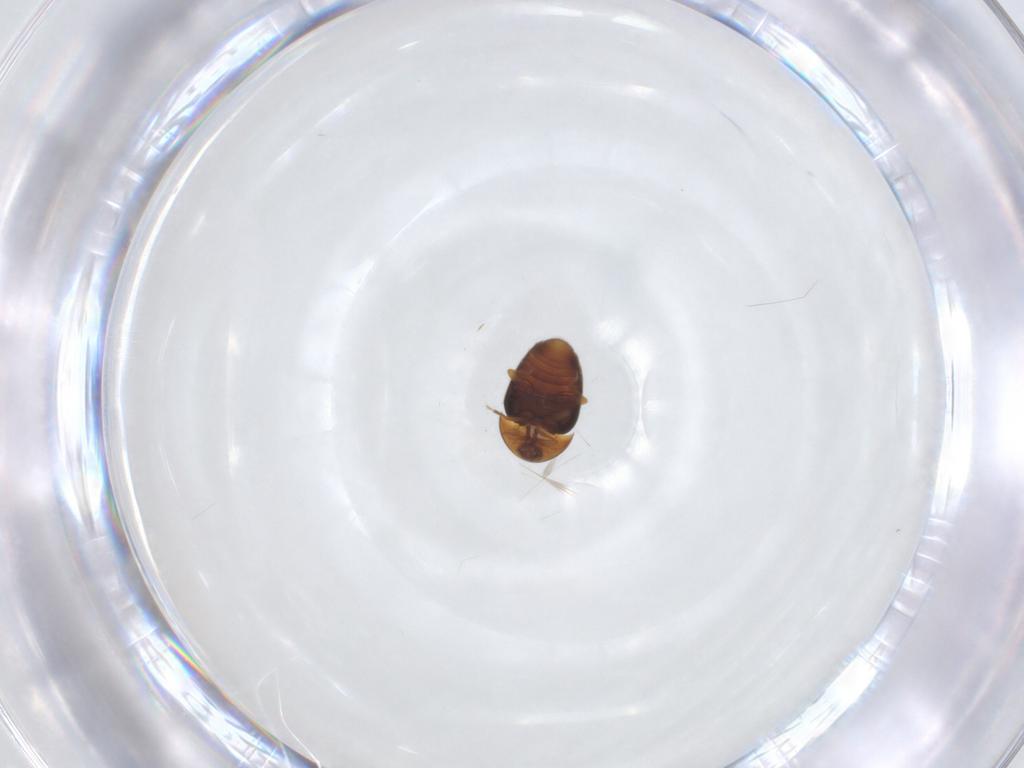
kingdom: Animalia
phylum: Arthropoda
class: Insecta
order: Coleoptera
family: Corylophidae
